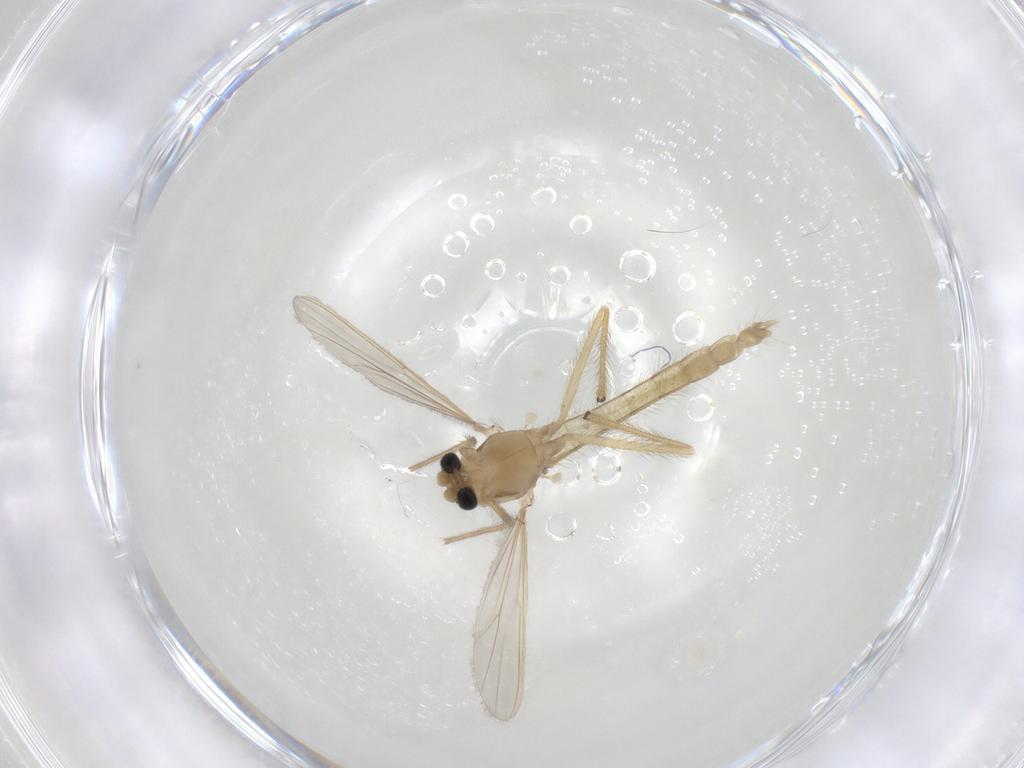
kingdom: Animalia
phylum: Arthropoda
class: Insecta
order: Diptera
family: Chironomidae
